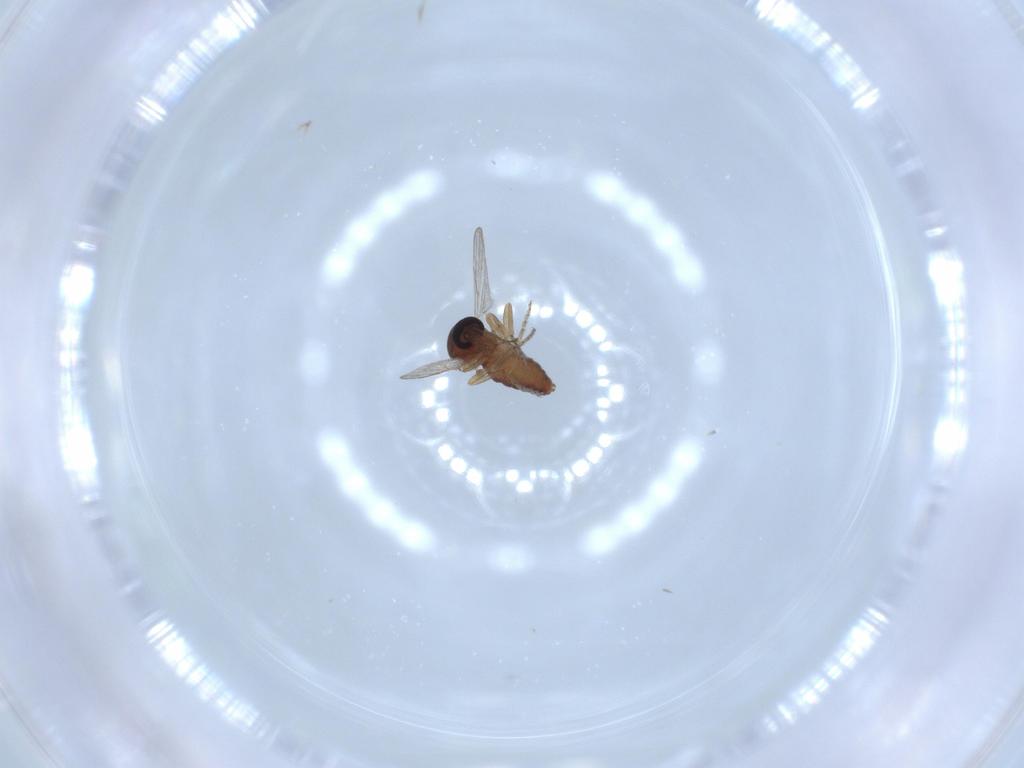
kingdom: Animalia
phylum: Arthropoda
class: Insecta
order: Diptera
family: Ceratopogonidae
